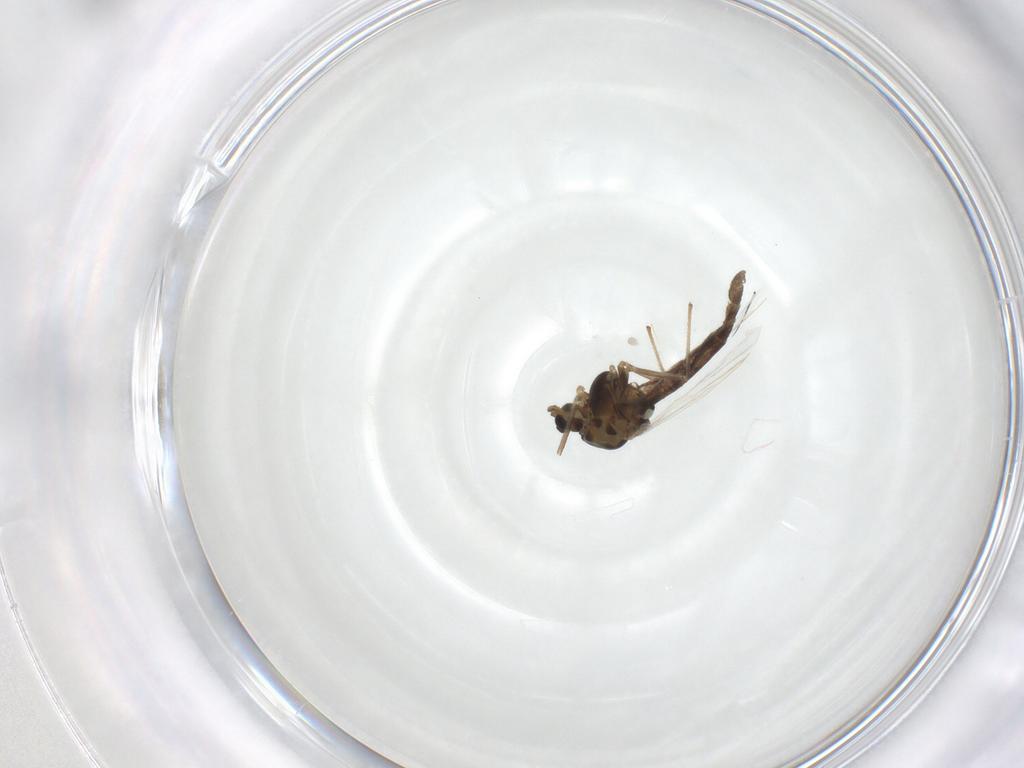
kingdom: Animalia
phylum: Arthropoda
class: Insecta
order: Diptera
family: Chironomidae
